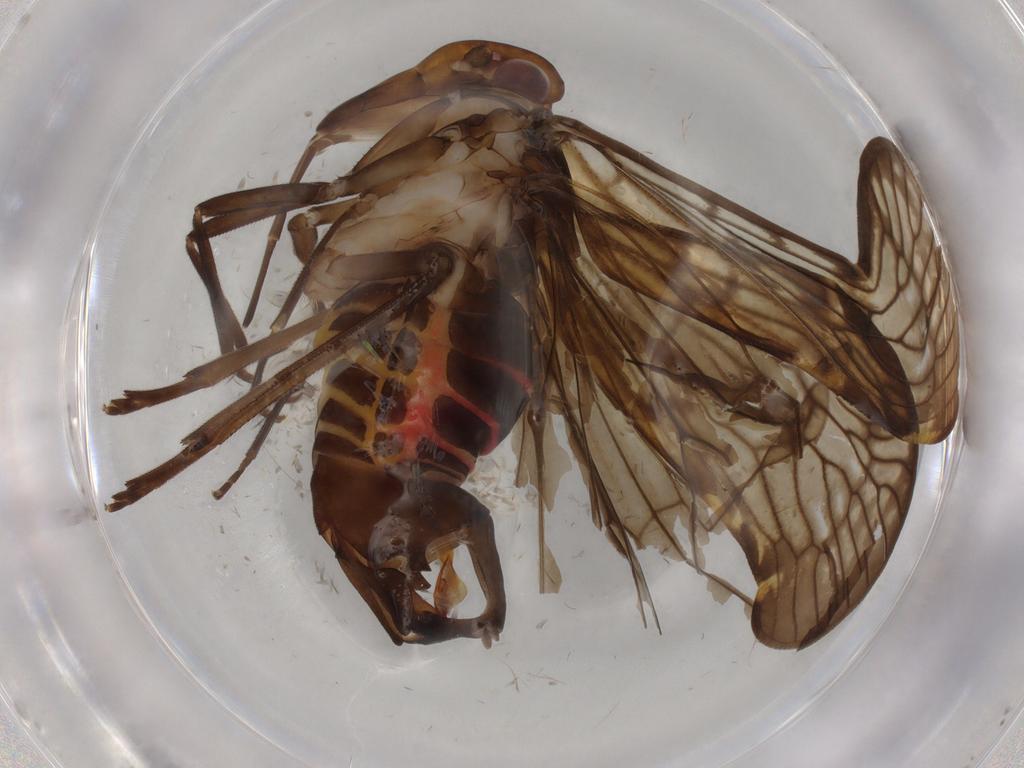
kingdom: Animalia
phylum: Arthropoda
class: Insecta
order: Hemiptera
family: Cixiidae
